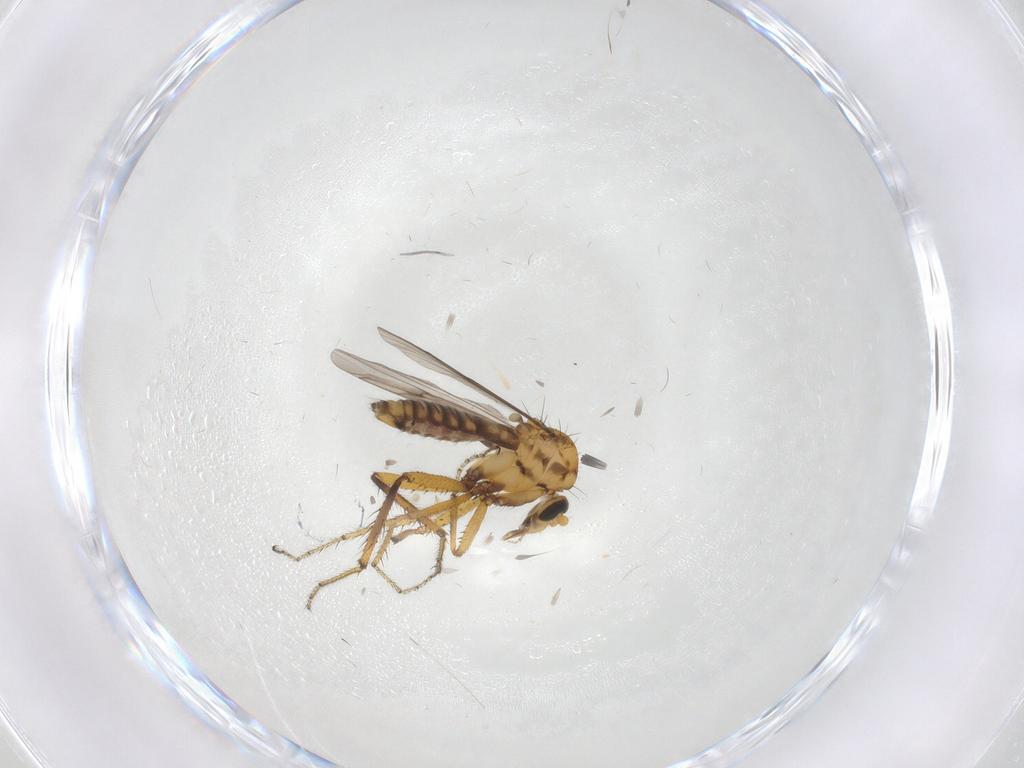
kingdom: Animalia
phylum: Arthropoda
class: Insecta
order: Diptera
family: Ceratopogonidae
